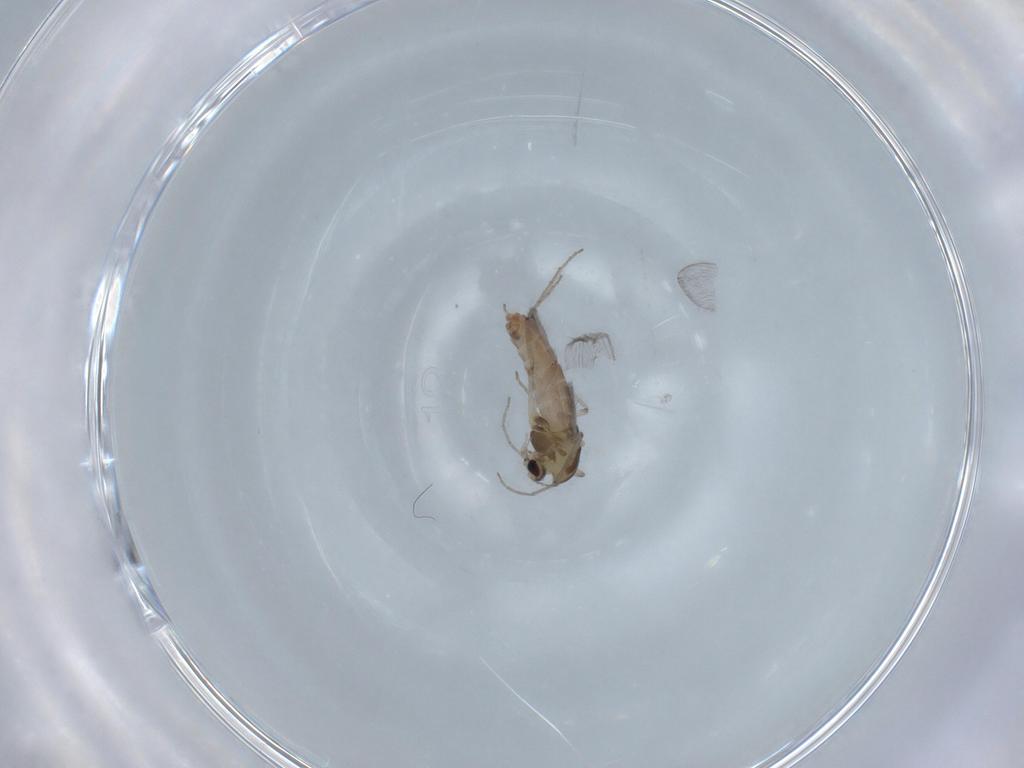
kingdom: Animalia
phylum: Arthropoda
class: Insecta
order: Diptera
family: Chironomidae
